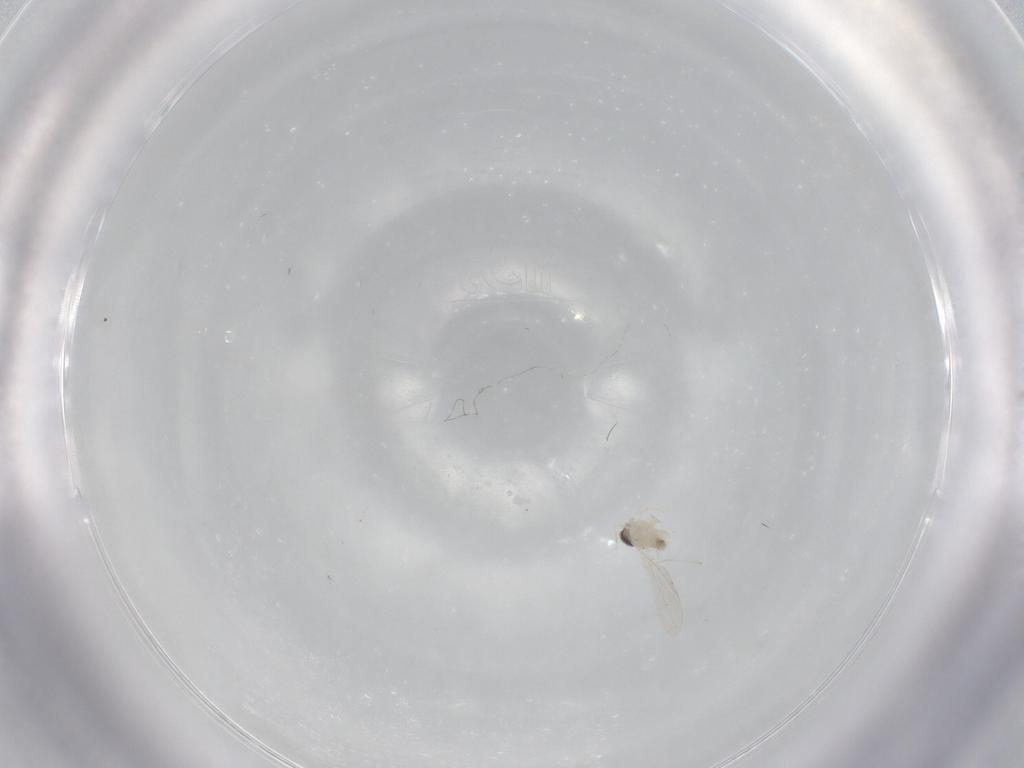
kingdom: Animalia
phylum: Arthropoda
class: Insecta
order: Diptera
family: Cecidomyiidae
